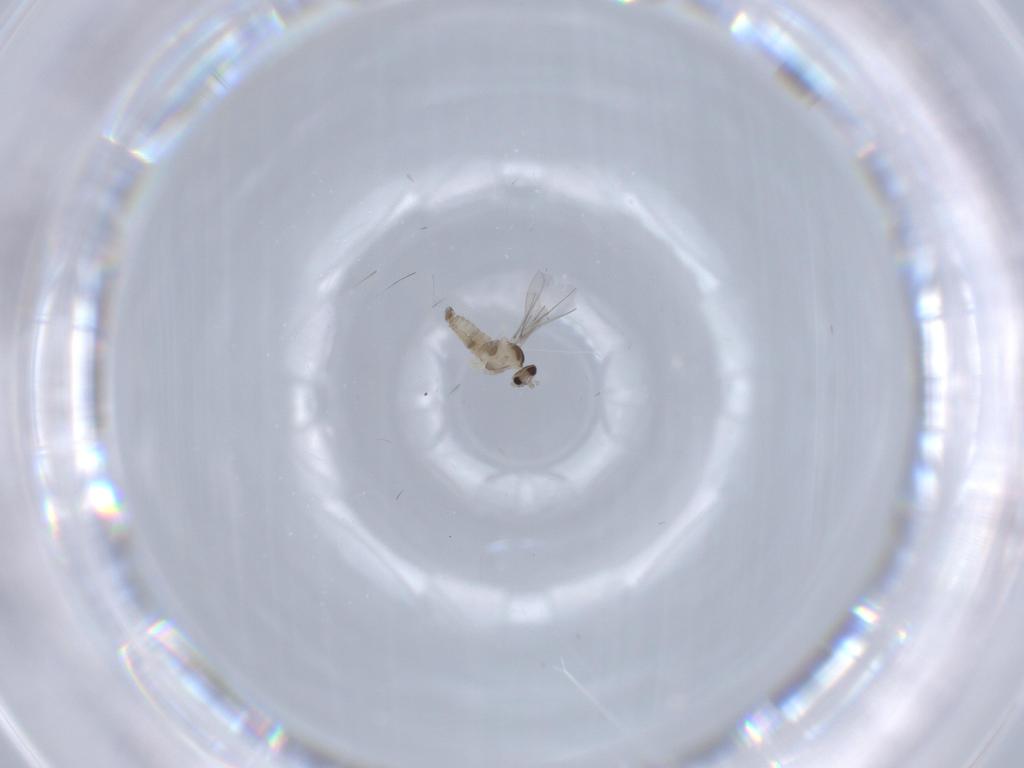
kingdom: Animalia
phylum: Arthropoda
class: Insecta
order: Diptera
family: Cecidomyiidae
